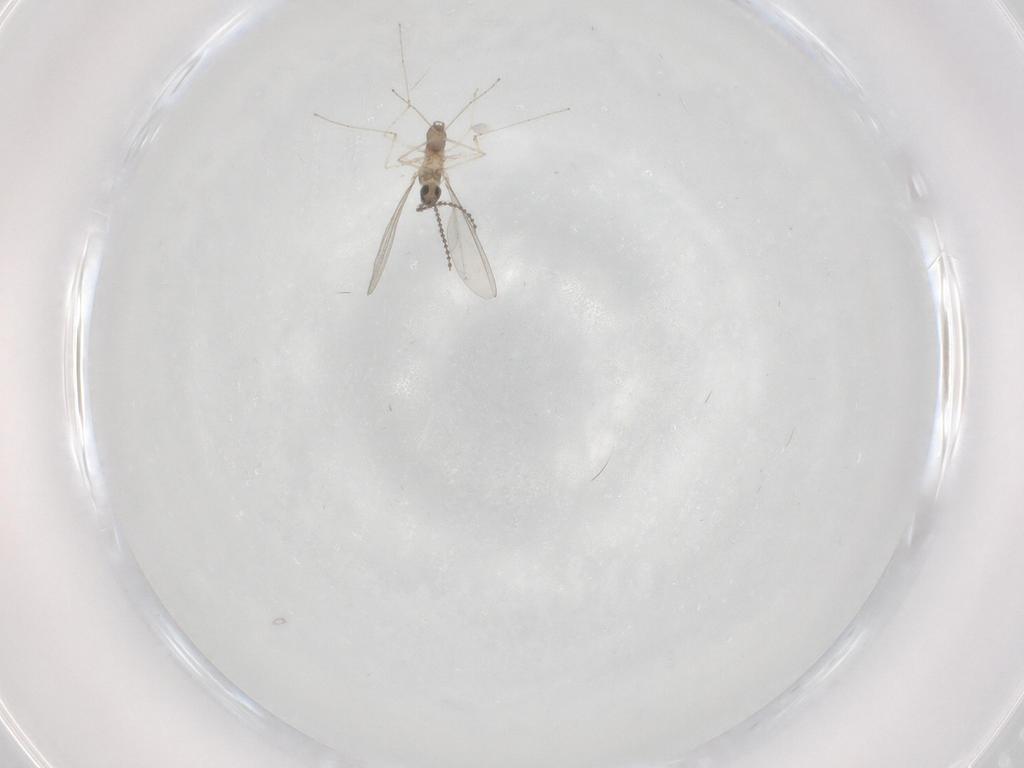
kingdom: Animalia
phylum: Arthropoda
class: Insecta
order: Diptera
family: Cecidomyiidae
